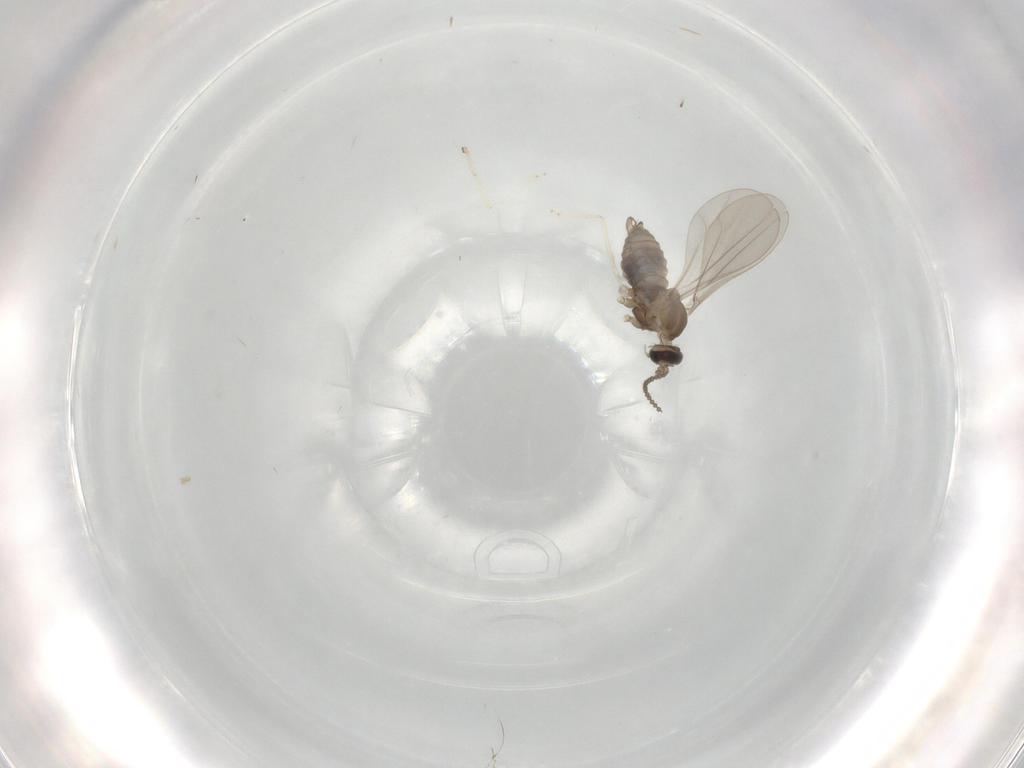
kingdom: Animalia
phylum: Arthropoda
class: Insecta
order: Diptera
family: Cecidomyiidae
